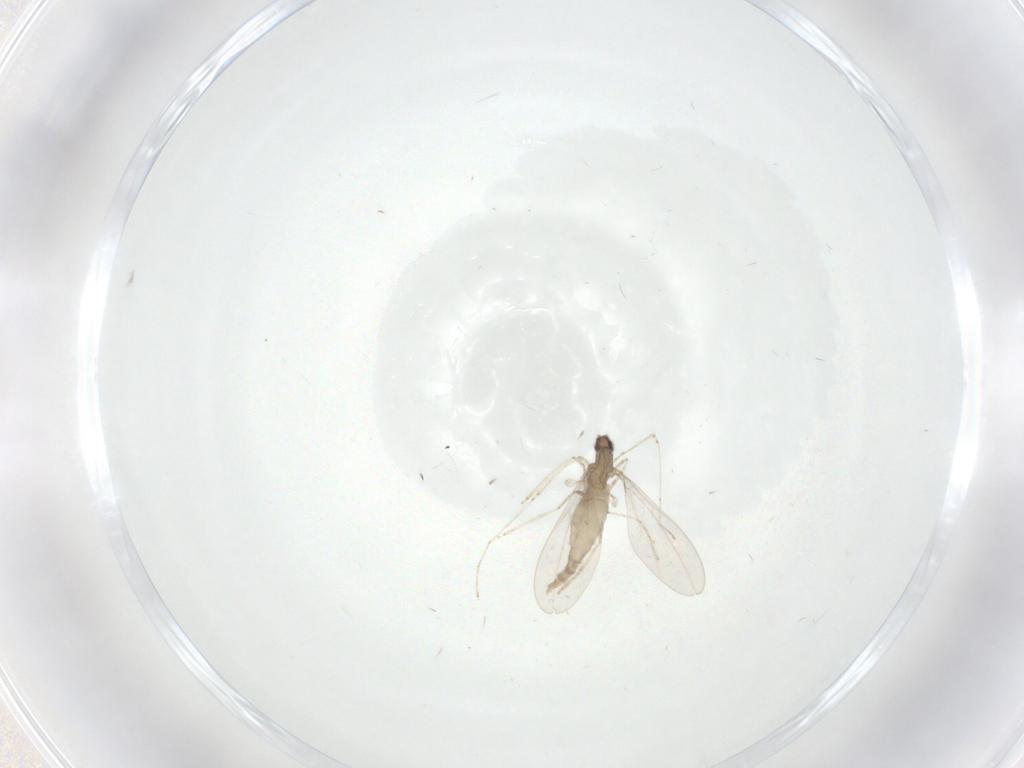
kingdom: Animalia
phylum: Arthropoda
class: Insecta
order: Diptera
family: Cecidomyiidae
